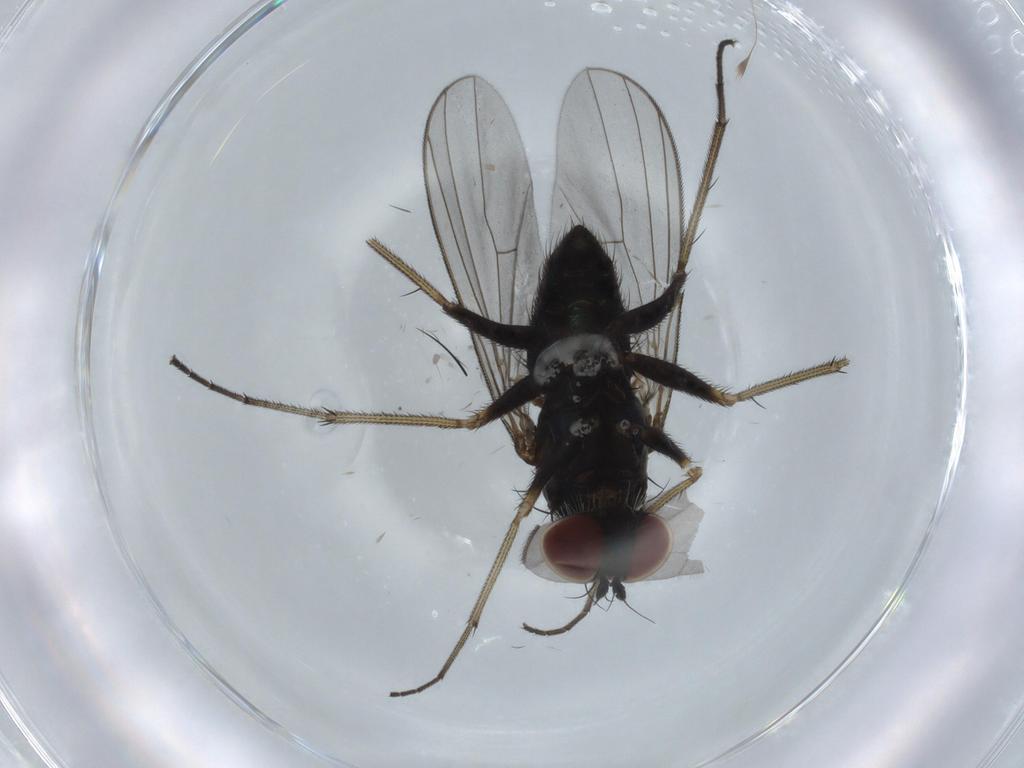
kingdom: Animalia
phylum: Arthropoda
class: Insecta
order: Diptera
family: Dolichopodidae
